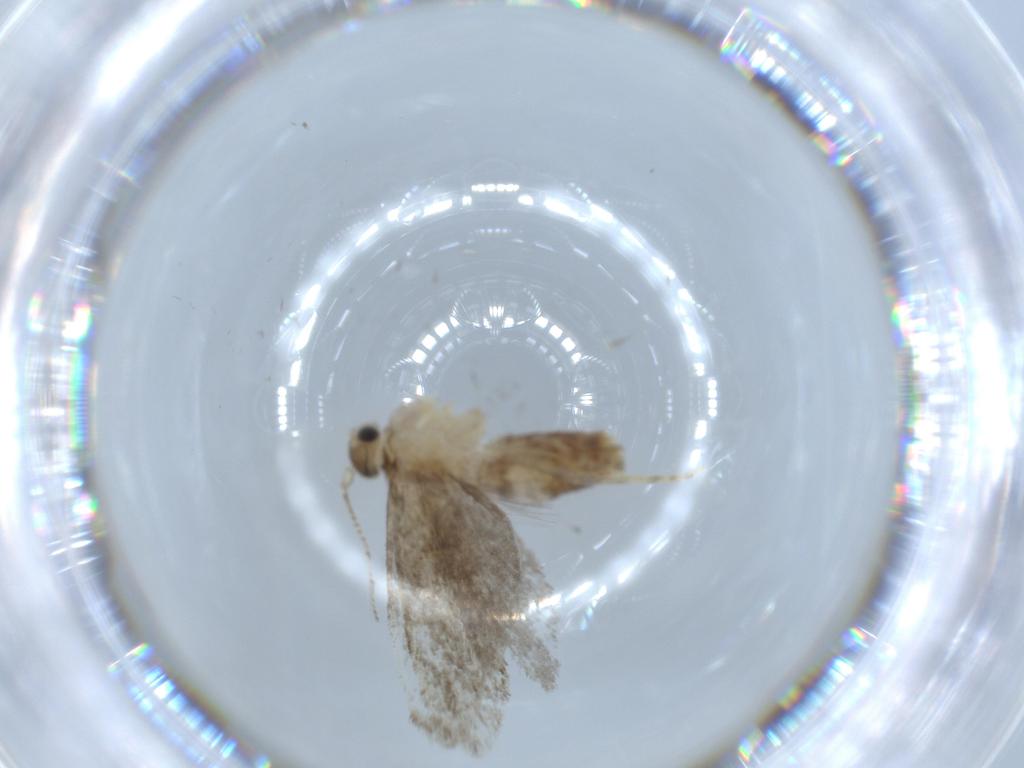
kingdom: Animalia
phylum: Arthropoda
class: Insecta
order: Lepidoptera
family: Tineidae
